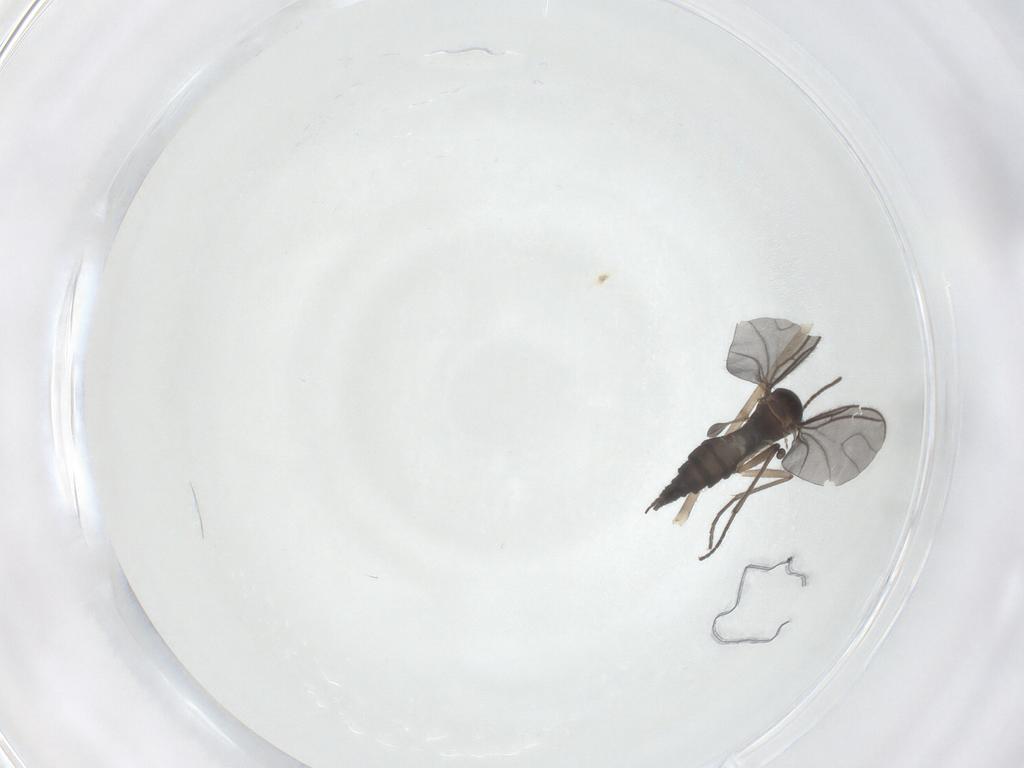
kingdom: Animalia
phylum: Arthropoda
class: Insecta
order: Diptera
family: Sciaridae
